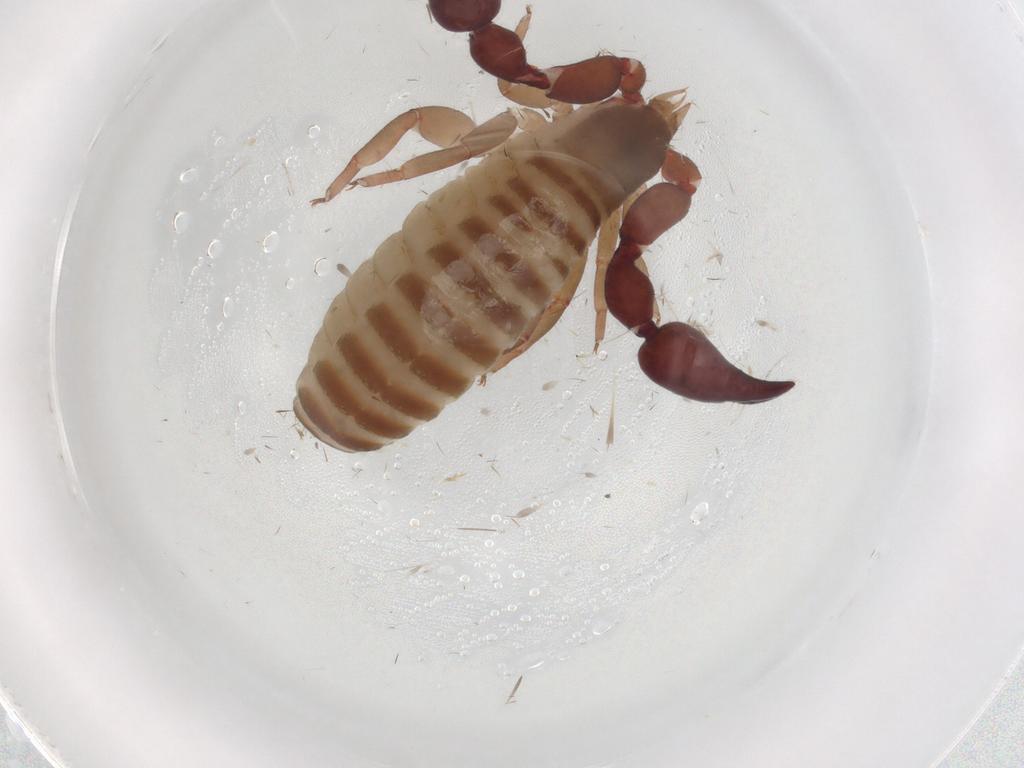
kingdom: Animalia
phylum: Arthropoda
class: Arachnida
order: Pseudoscorpiones
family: Atemnidae
